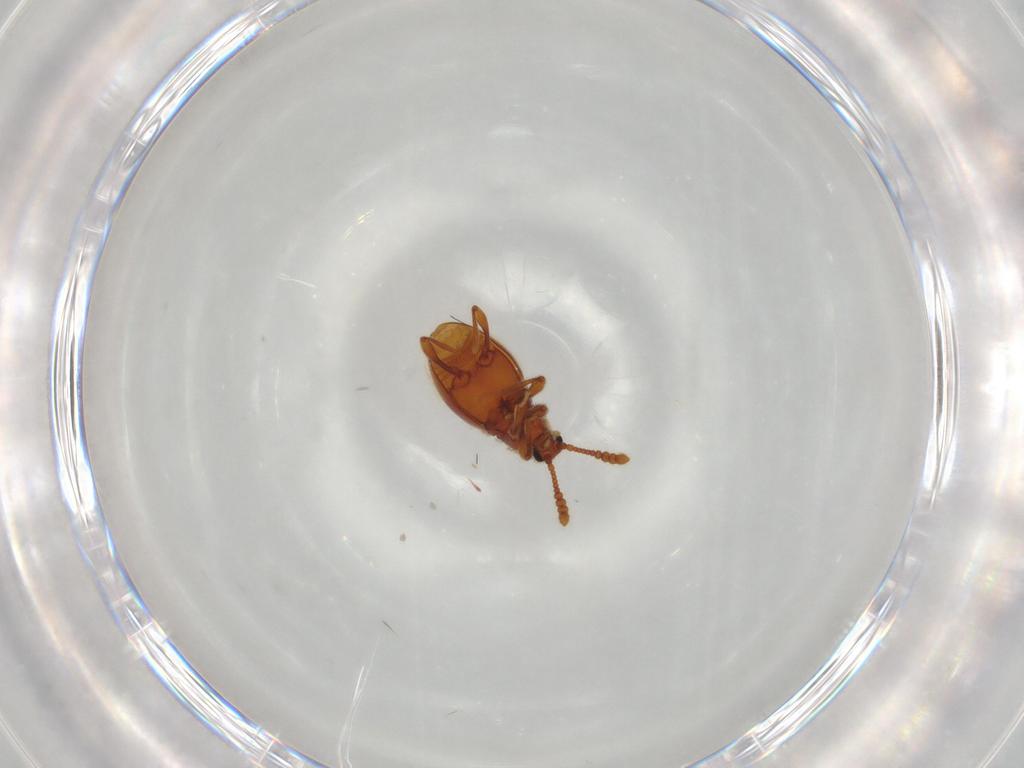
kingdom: Animalia
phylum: Arthropoda
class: Insecta
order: Coleoptera
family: Staphylinidae
